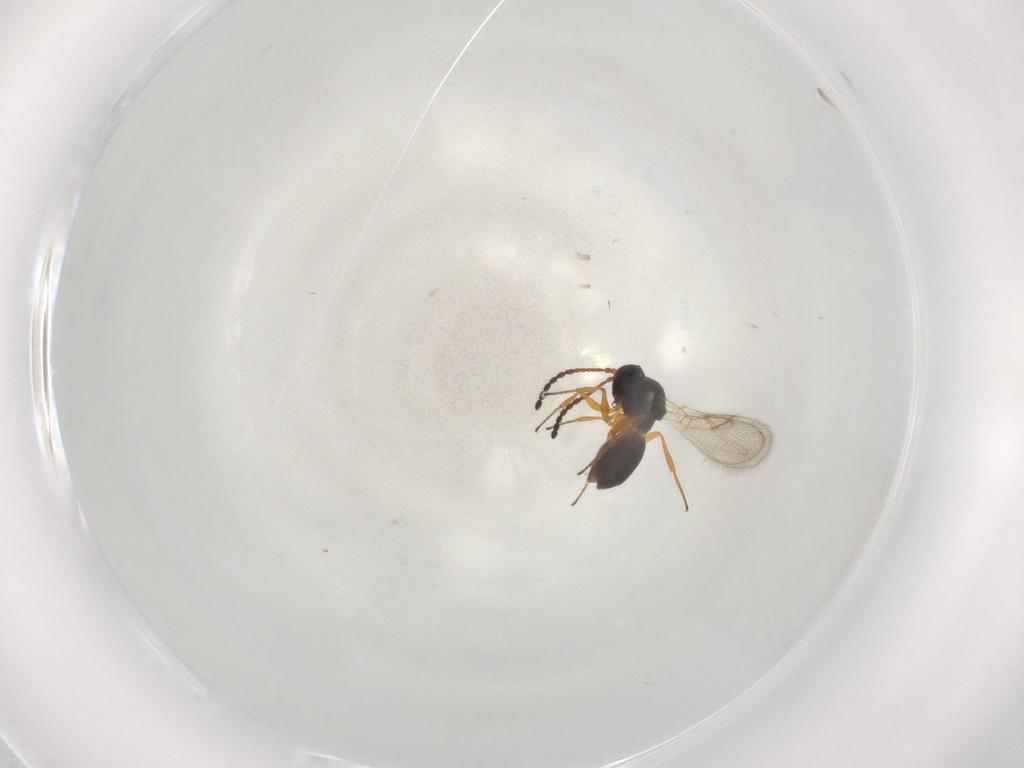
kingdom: Animalia
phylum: Arthropoda
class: Insecta
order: Hymenoptera
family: Figitidae
